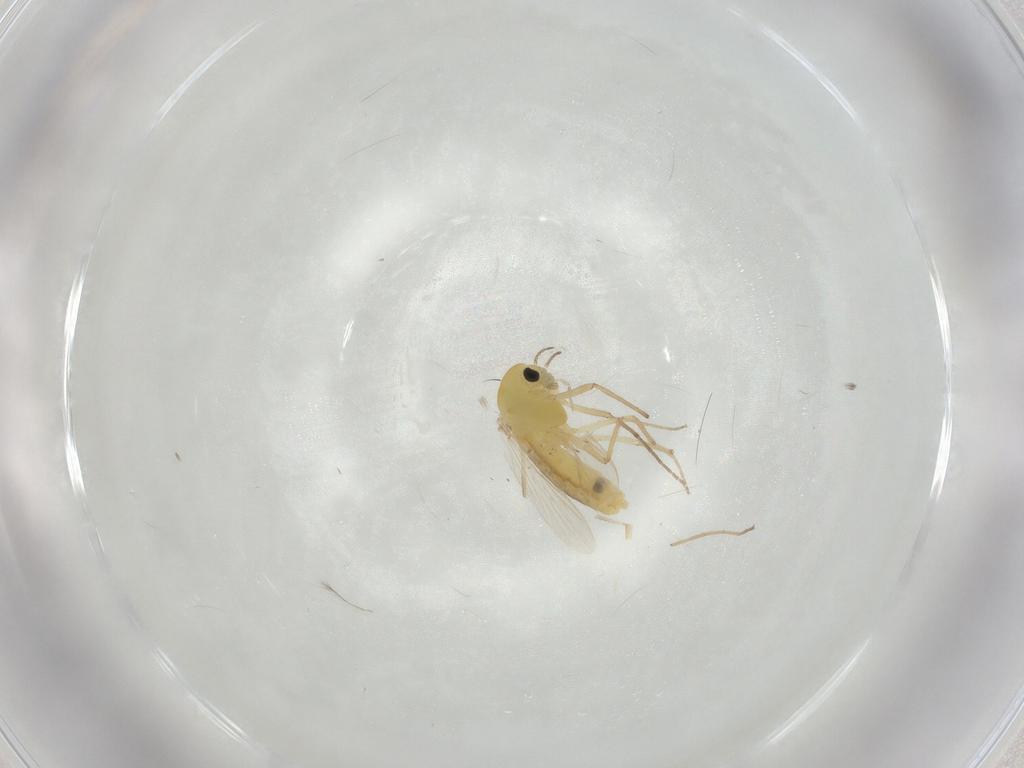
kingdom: Animalia
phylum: Arthropoda
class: Insecta
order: Diptera
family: Chironomidae
